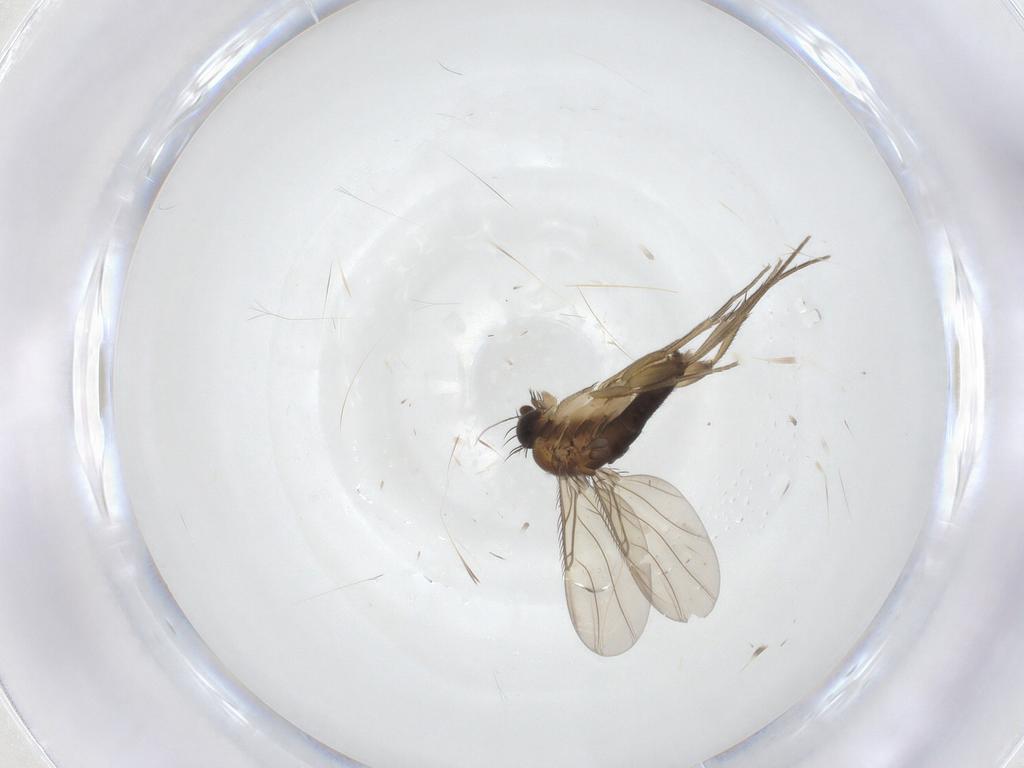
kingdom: Animalia
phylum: Arthropoda
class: Insecta
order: Diptera
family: Phoridae
